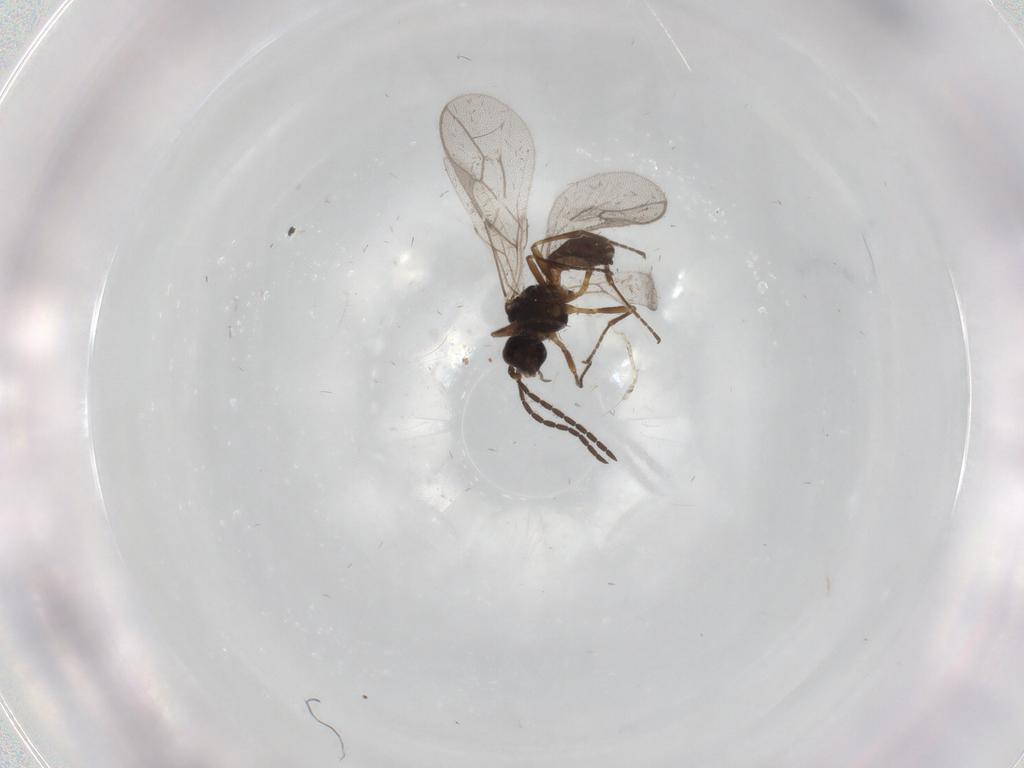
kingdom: Animalia
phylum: Arthropoda
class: Insecta
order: Hymenoptera
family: Braconidae
